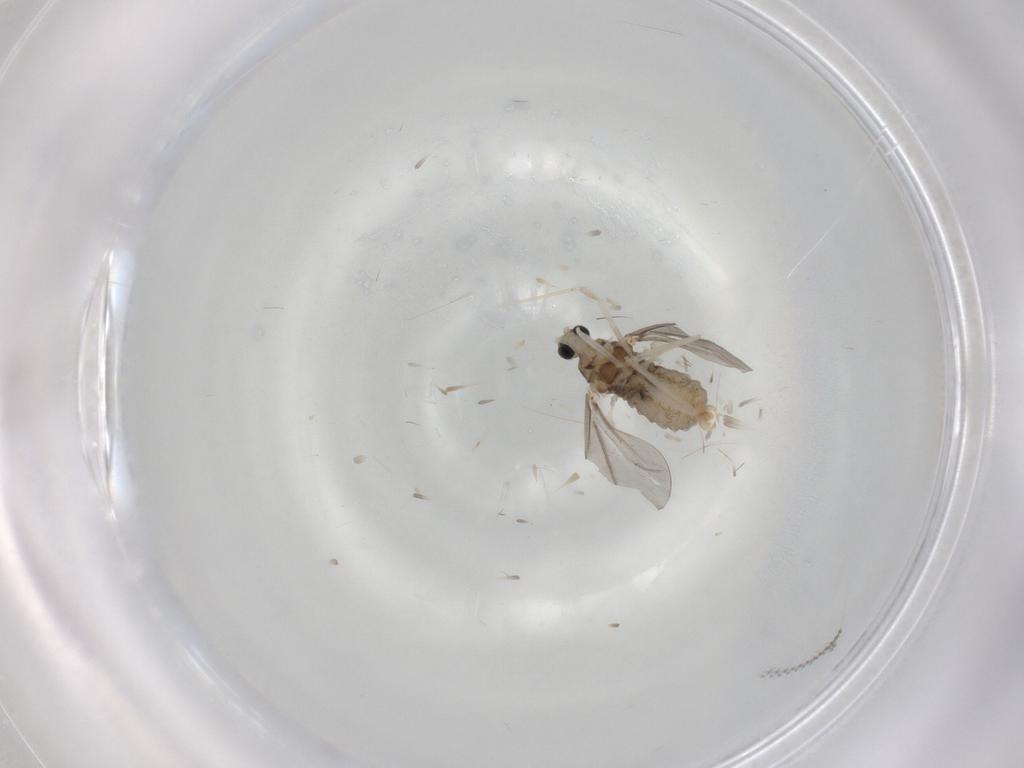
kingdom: Animalia
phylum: Arthropoda
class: Insecta
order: Diptera
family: Cecidomyiidae
